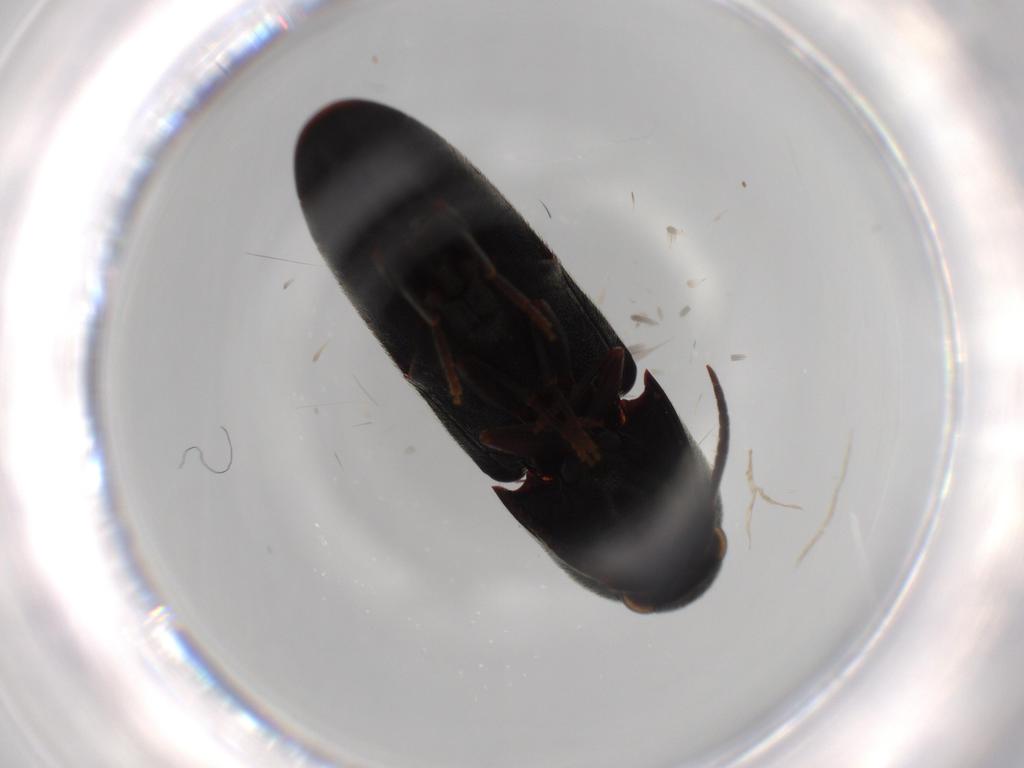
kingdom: Animalia
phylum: Arthropoda
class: Insecta
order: Coleoptera
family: Eucnemidae
